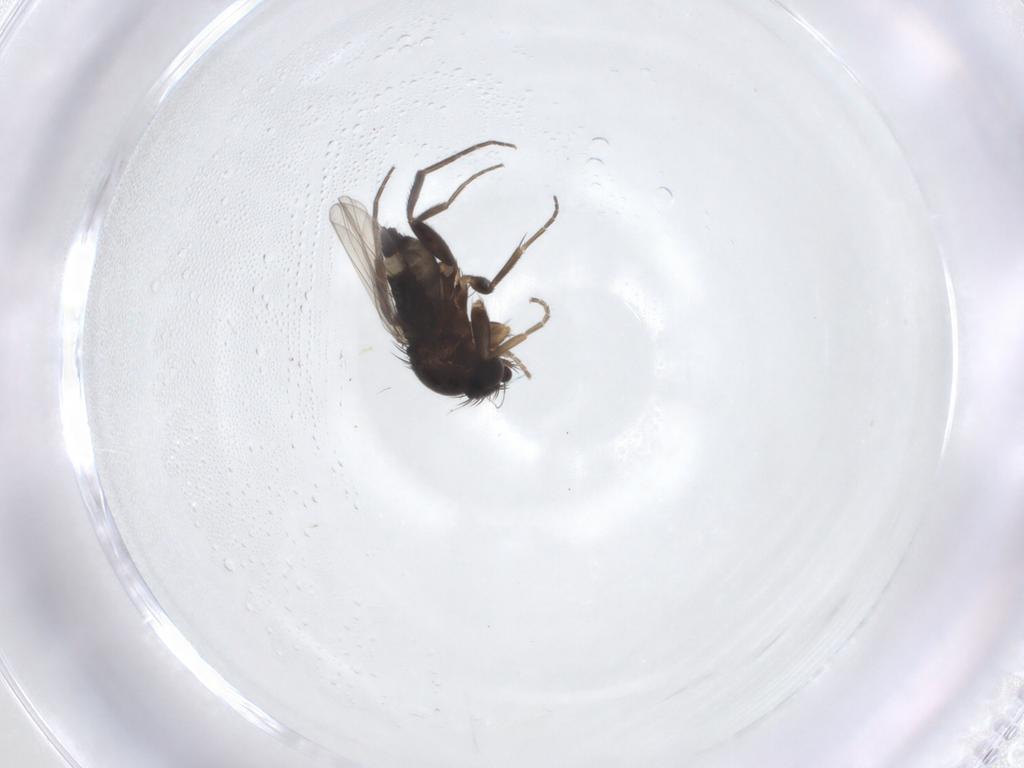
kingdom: Animalia
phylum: Arthropoda
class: Insecta
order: Diptera
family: Phoridae
